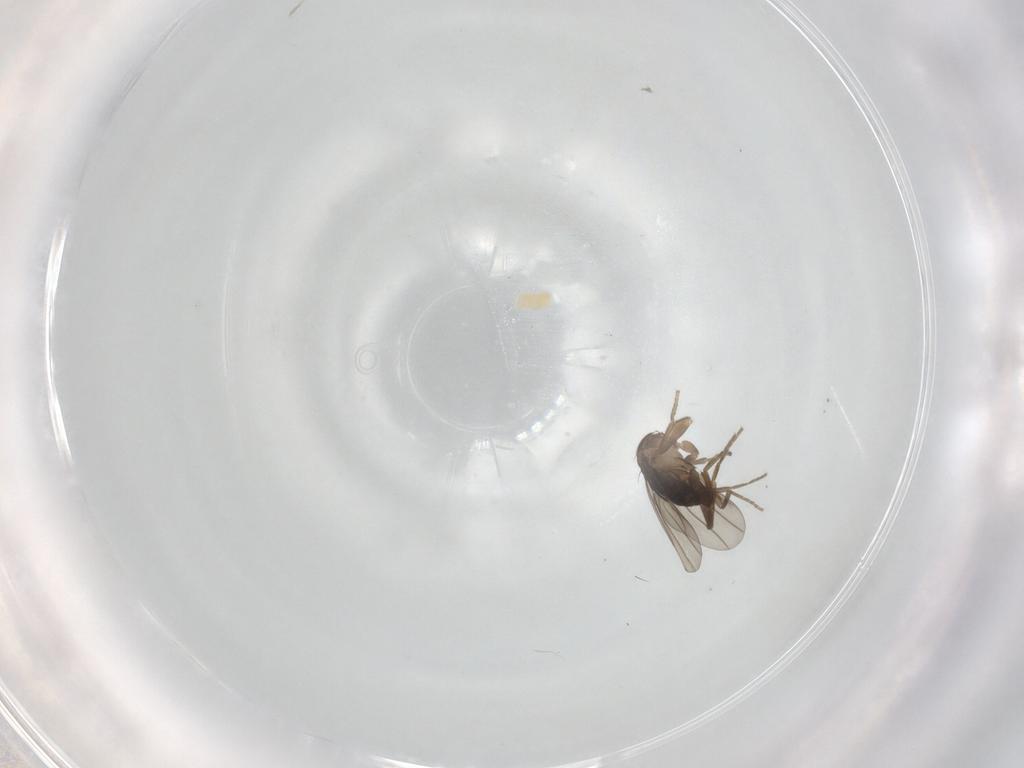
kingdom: Animalia
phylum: Arthropoda
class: Insecta
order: Diptera
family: Cecidomyiidae
